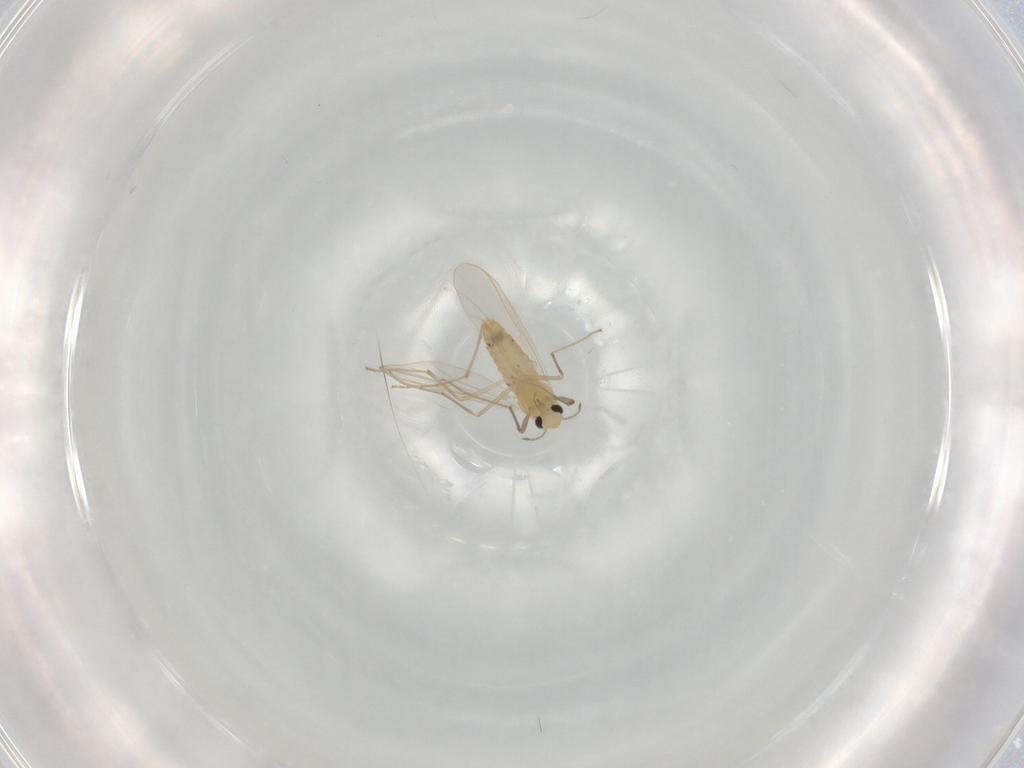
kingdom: Animalia
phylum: Arthropoda
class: Insecta
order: Diptera
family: Chironomidae
